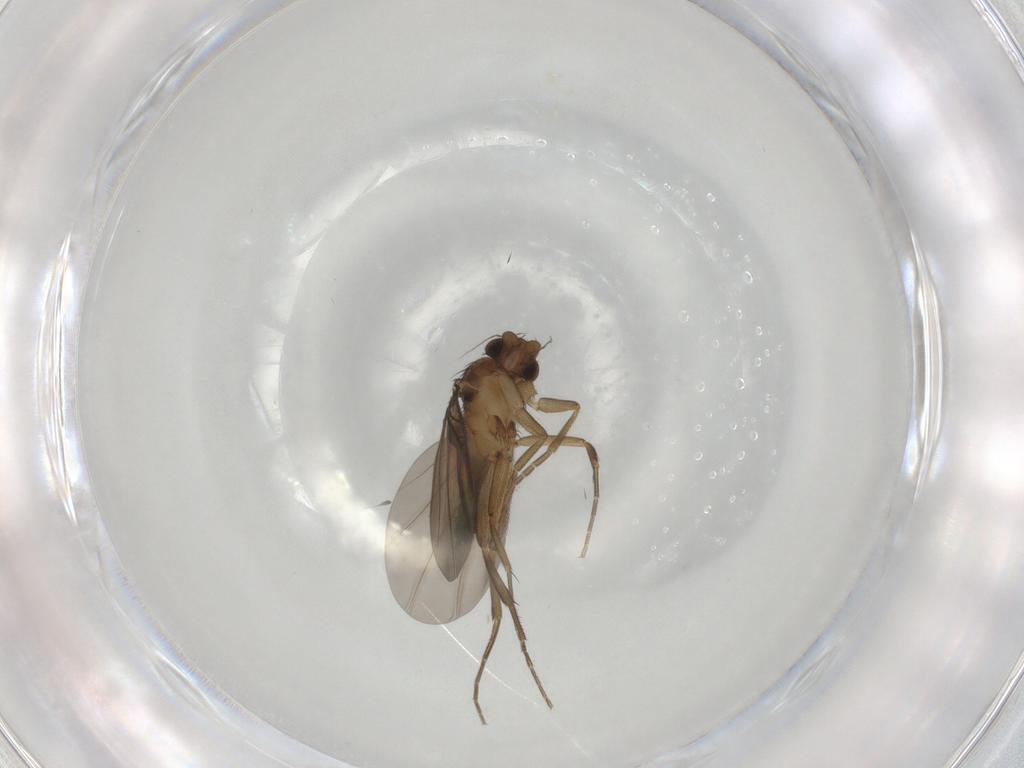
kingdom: Animalia
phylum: Arthropoda
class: Insecta
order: Diptera
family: Phoridae
